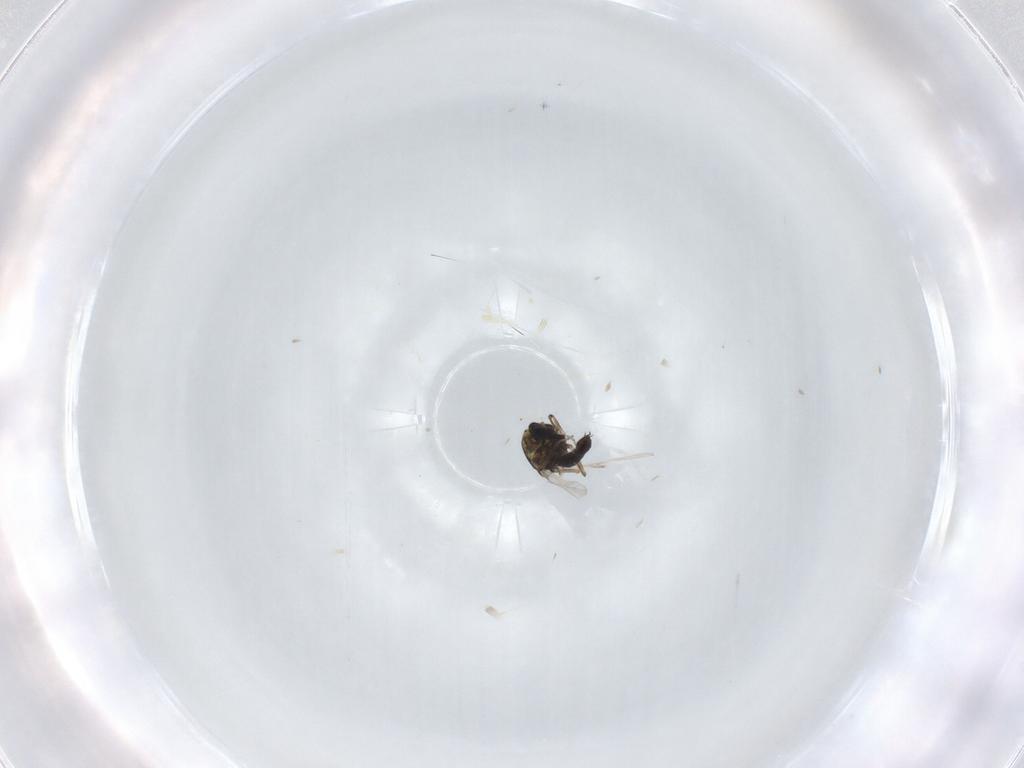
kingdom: Animalia
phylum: Arthropoda
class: Insecta
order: Diptera
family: Ceratopogonidae
